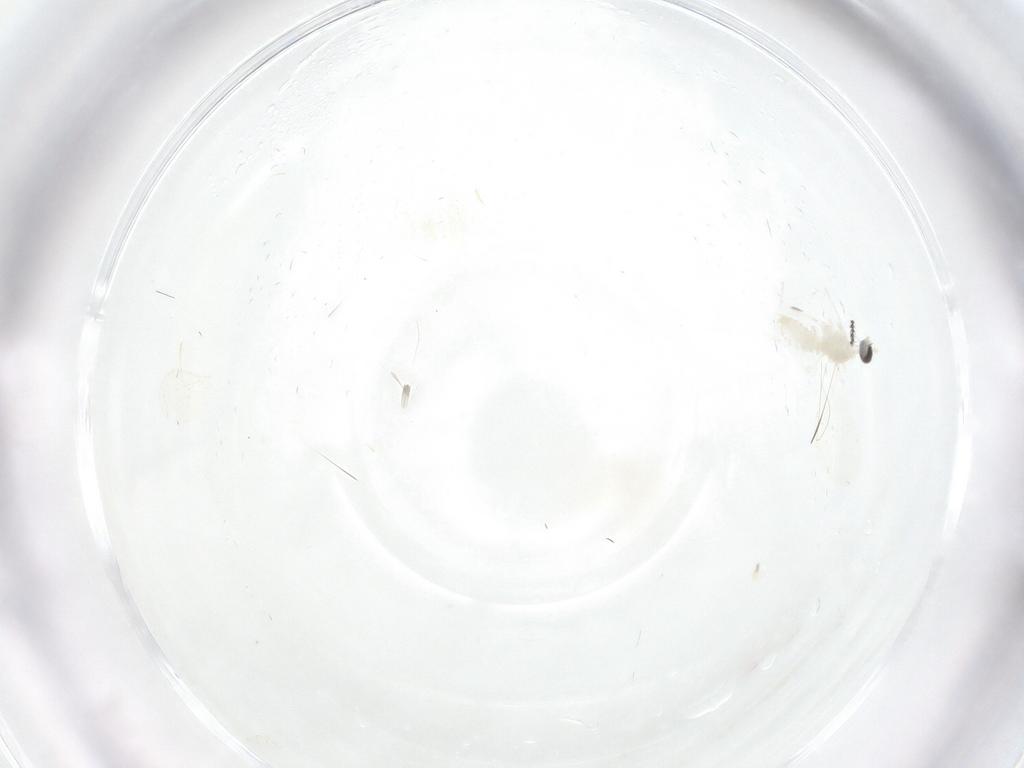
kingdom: Animalia
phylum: Arthropoda
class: Insecta
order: Diptera
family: Cecidomyiidae
